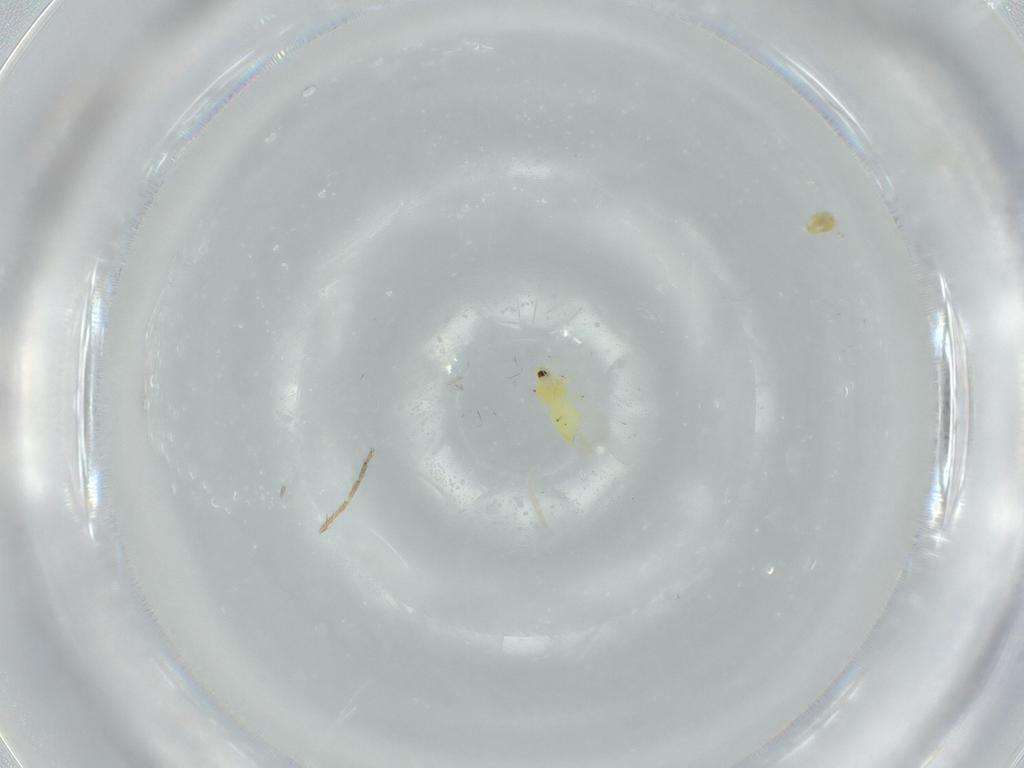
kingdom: Animalia
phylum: Arthropoda
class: Insecta
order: Hemiptera
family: Aleyrodidae
